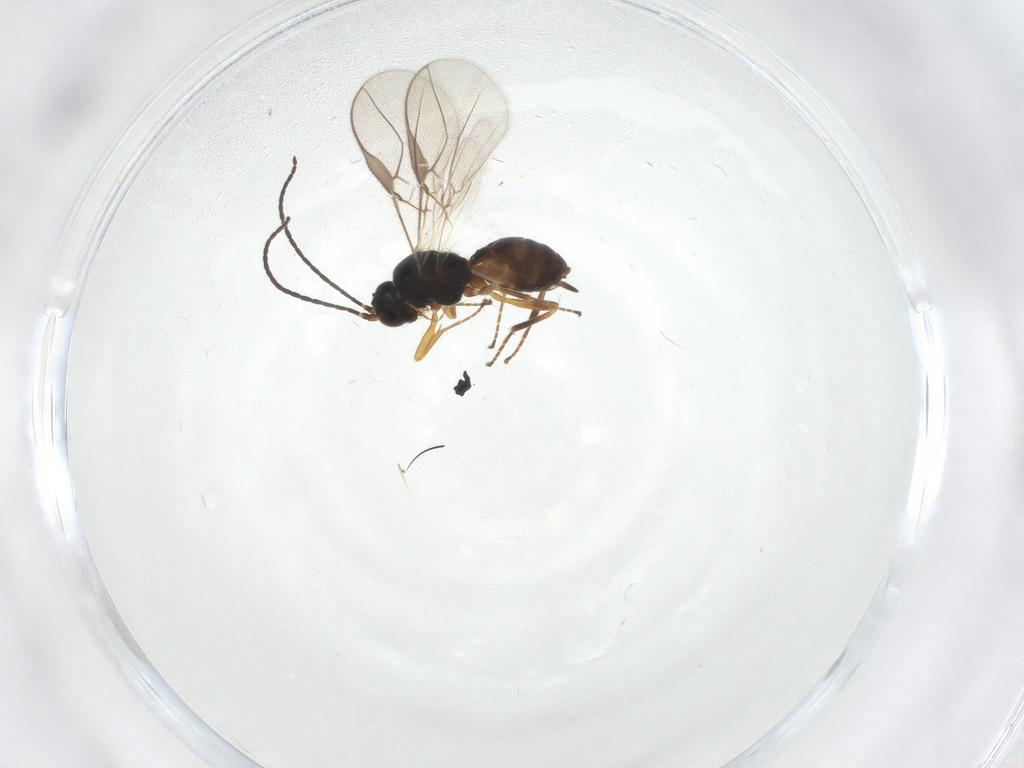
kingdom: Animalia
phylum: Arthropoda
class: Insecta
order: Hymenoptera
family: Braconidae
